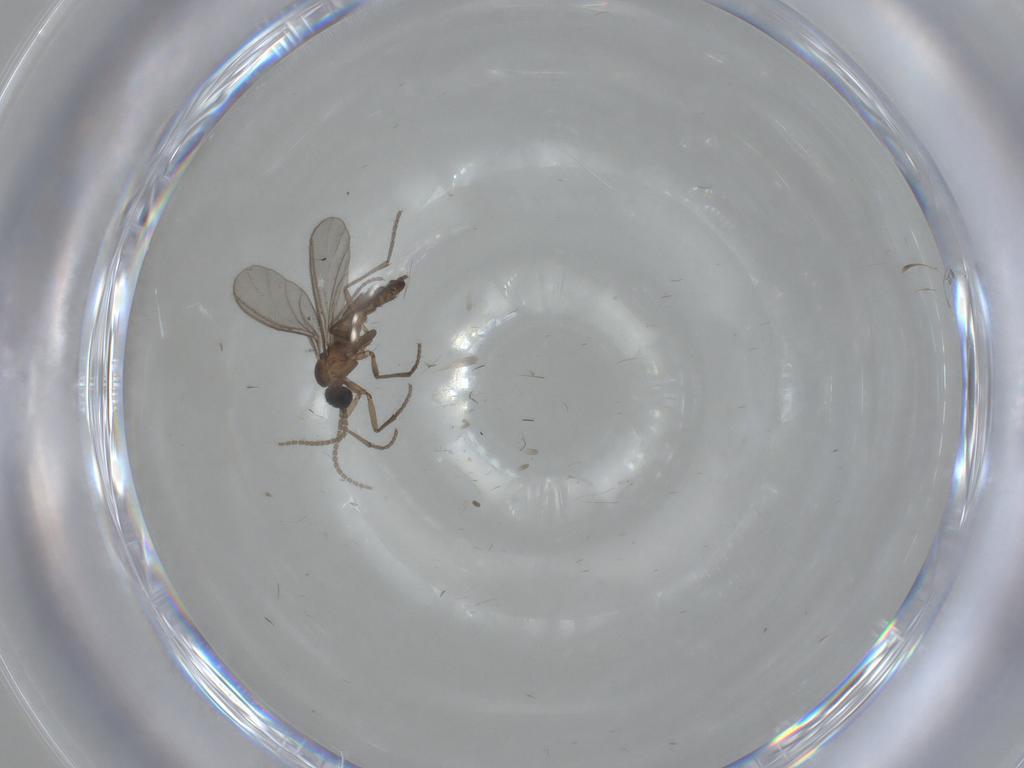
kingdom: Animalia
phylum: Arthropoda
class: Insecta
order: Diptera
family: Sciaridae
